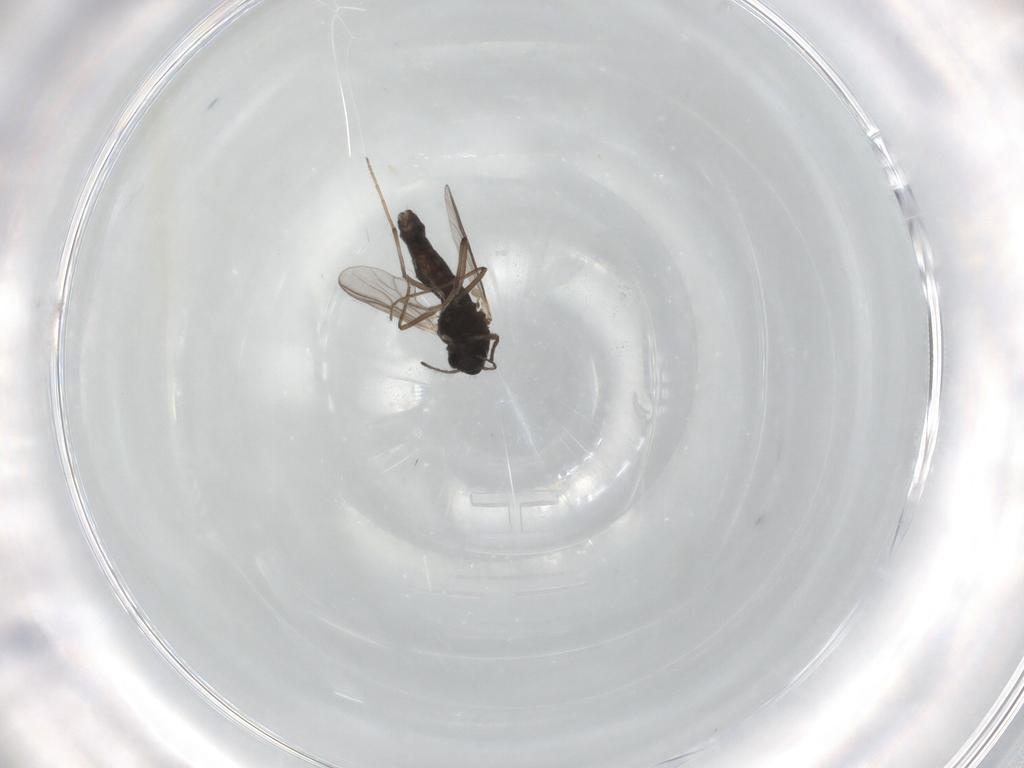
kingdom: Animalia
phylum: Arthropoda
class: Insecta
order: Diptera
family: Chironomidae
